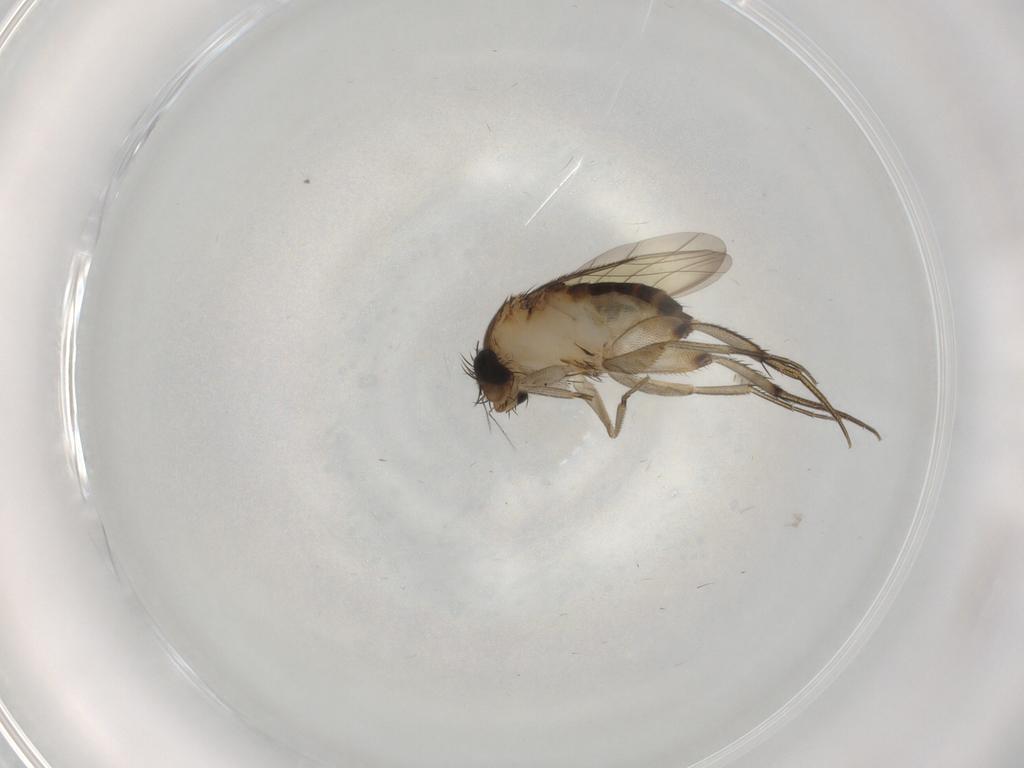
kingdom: Animalia
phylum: Arthropoda
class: Insecta
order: Diptera
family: Phoridae
